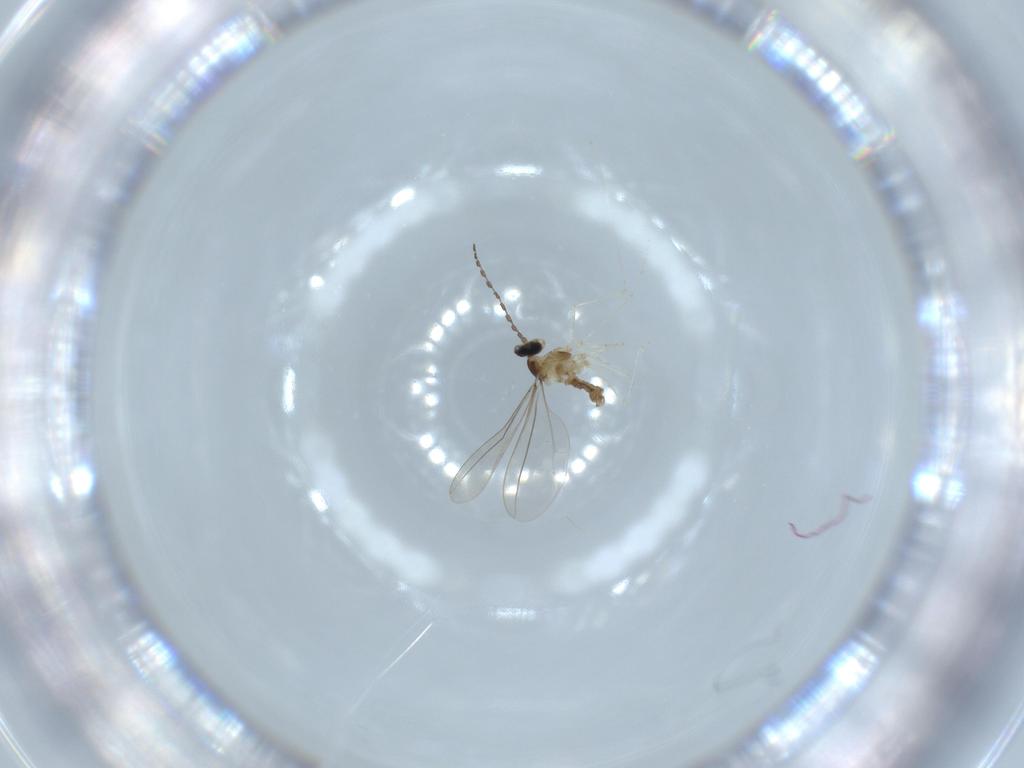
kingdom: Animalia
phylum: Arthropoda
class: Insecta
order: Diptera
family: Cecidomyiidae
